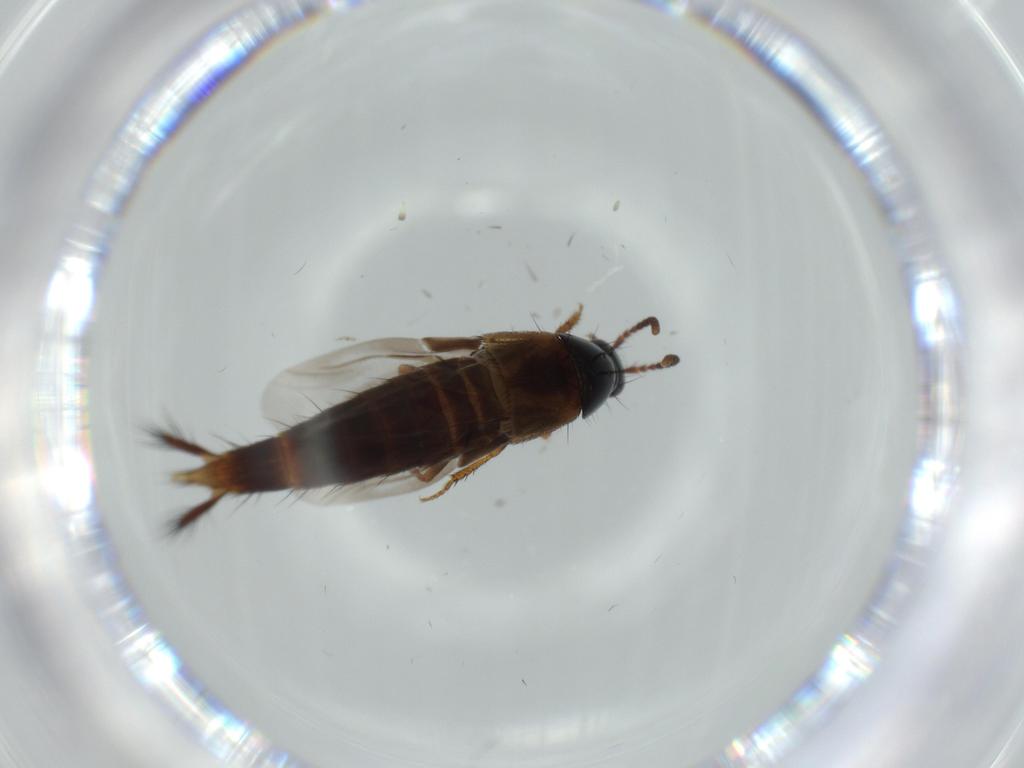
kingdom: Animalia
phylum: Arthropoda
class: Insecta
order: Coleoptera
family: Staphylinidae
